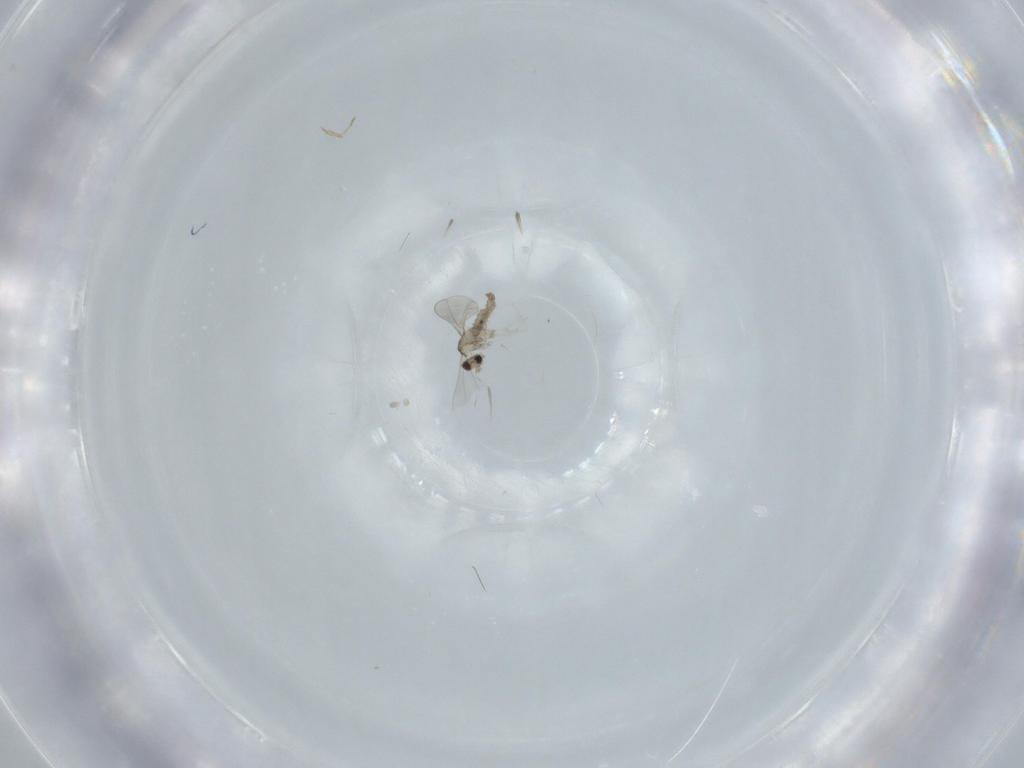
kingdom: Animalia
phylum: Arthropoda
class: Insecta
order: Diptera
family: Cecidomyiidae
